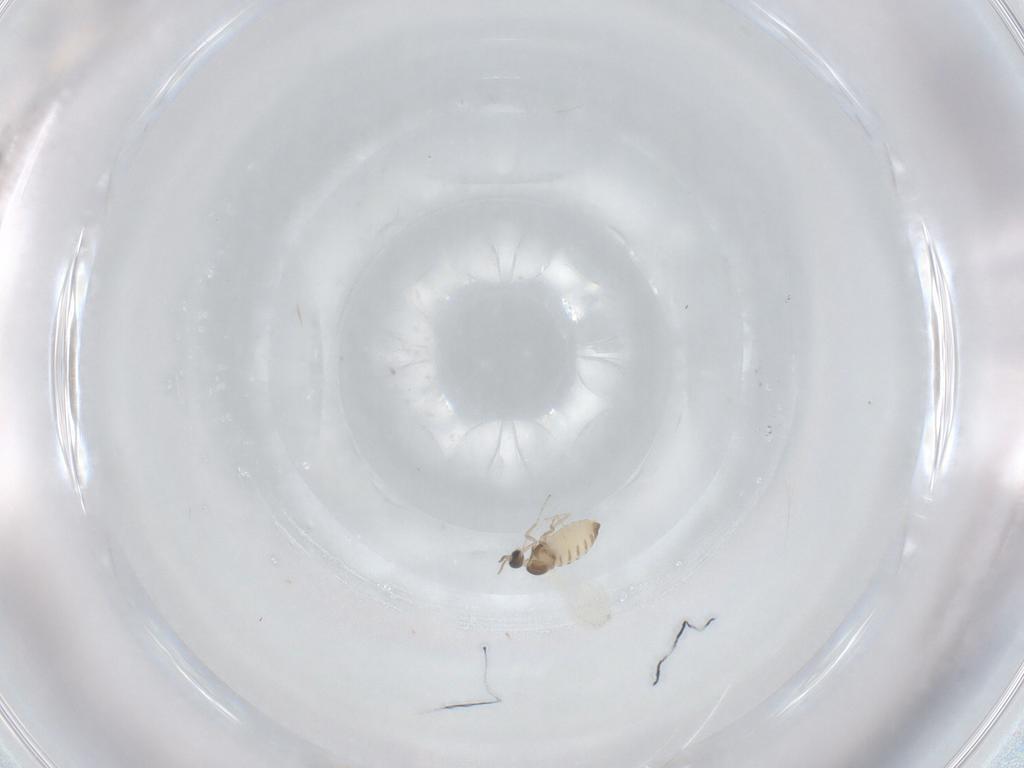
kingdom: Animalia
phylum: Arthropoda
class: Insecta
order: Diptera
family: Cecidomyiidae
